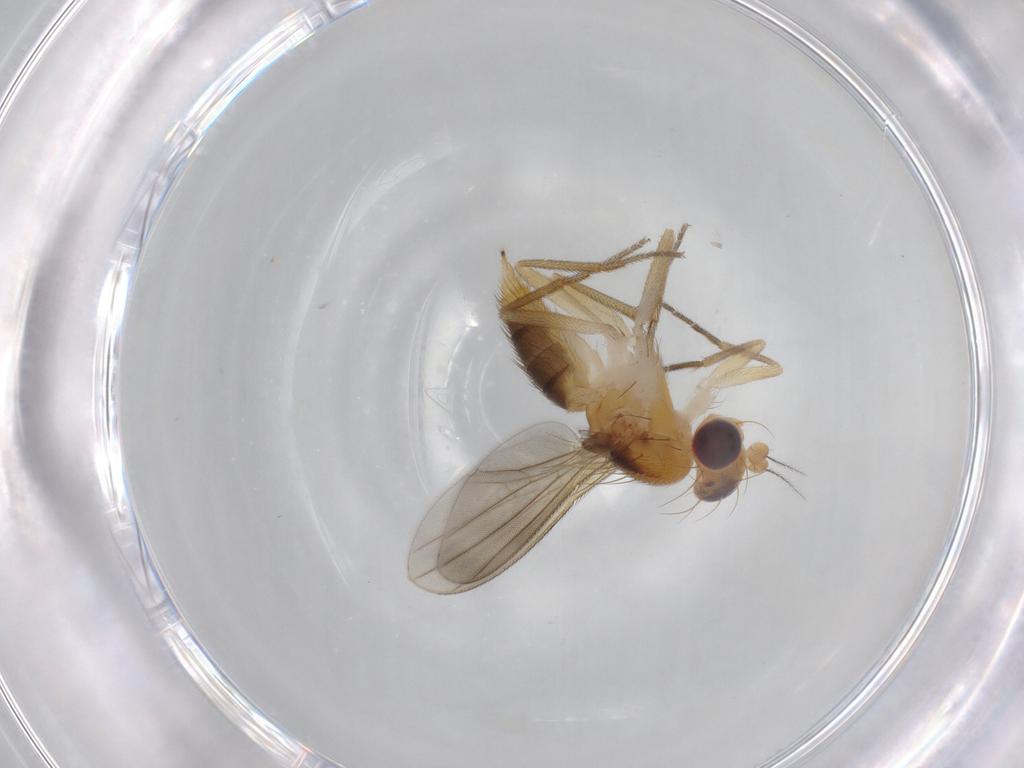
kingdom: Animalia
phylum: Arthropoda
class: Insecta
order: Diptera
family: Clusiidae
